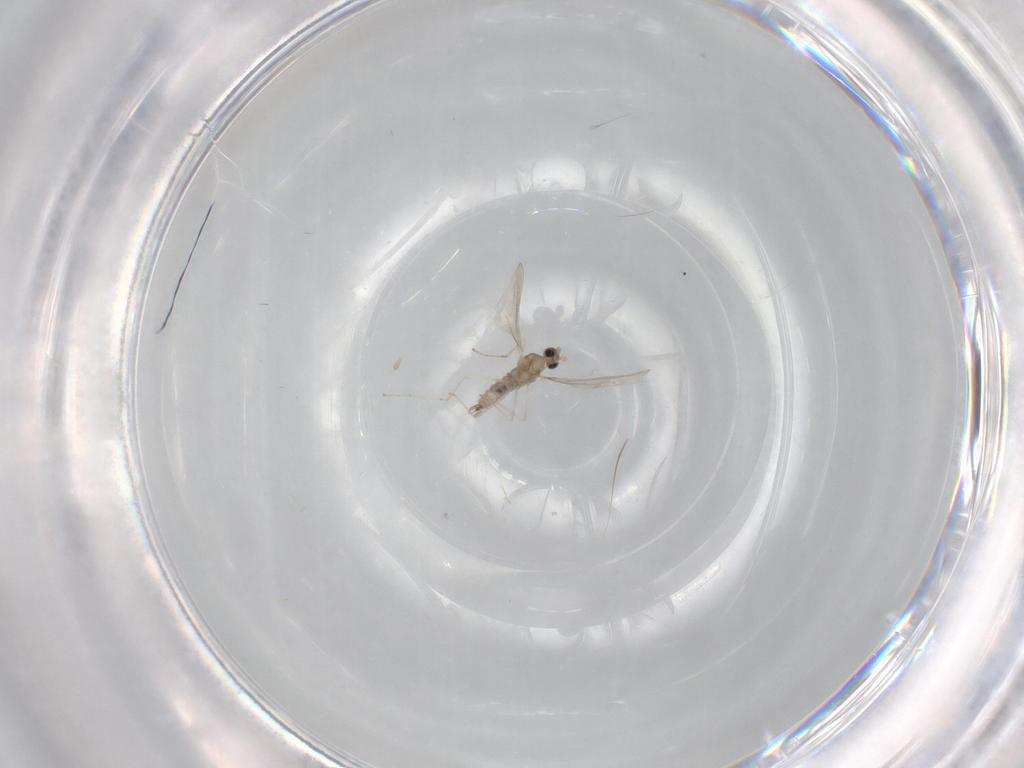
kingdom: Animalia
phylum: Arthropoda
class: Insecta
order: Diptera
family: Cecidomyiidae
